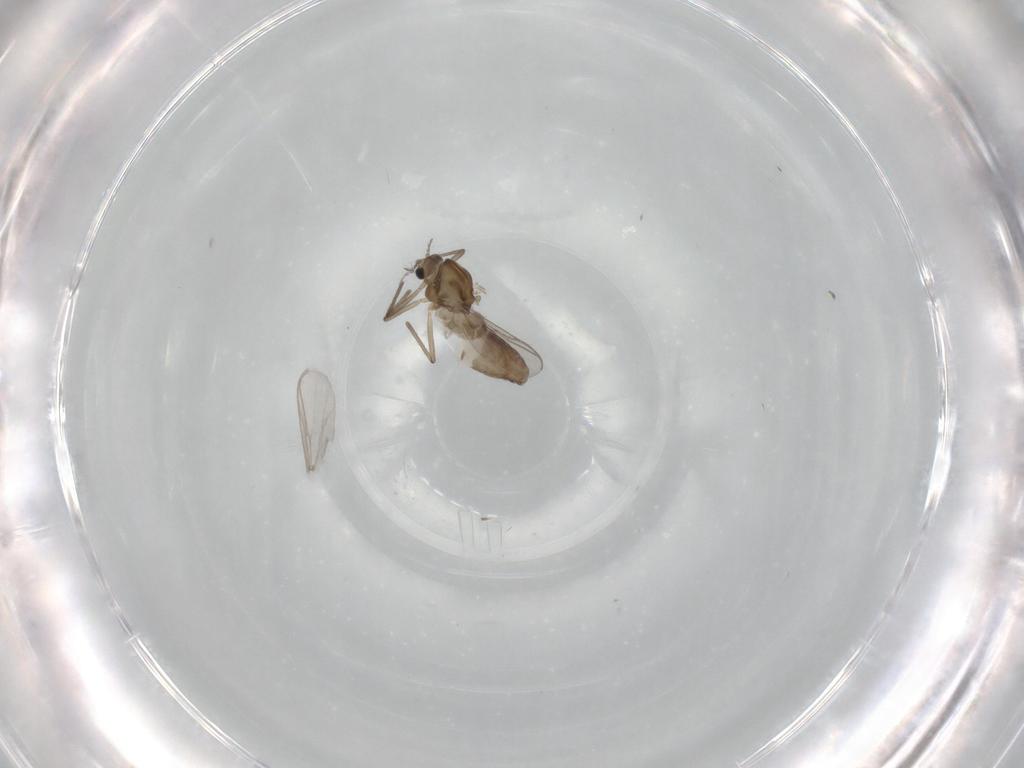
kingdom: Animalia
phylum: Arthropoda
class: Insecta
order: Diptera
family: Chironomidae
